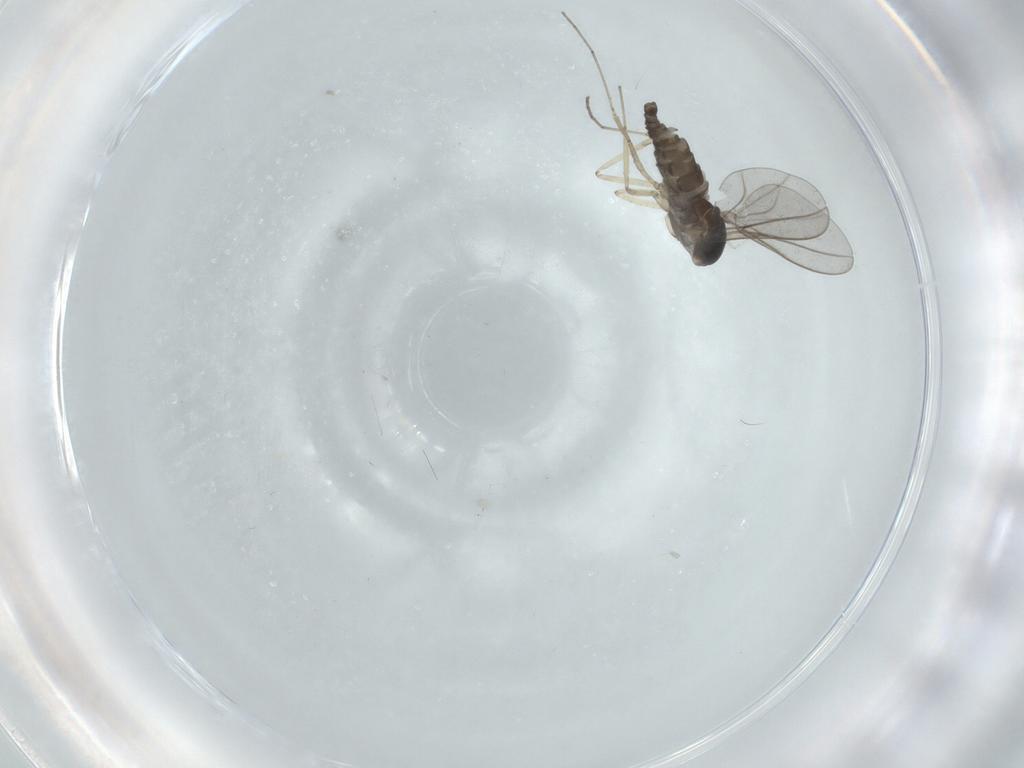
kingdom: Animalia
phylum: Arthropoda
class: Insecta
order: Diptera
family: Cecidomyiidae
